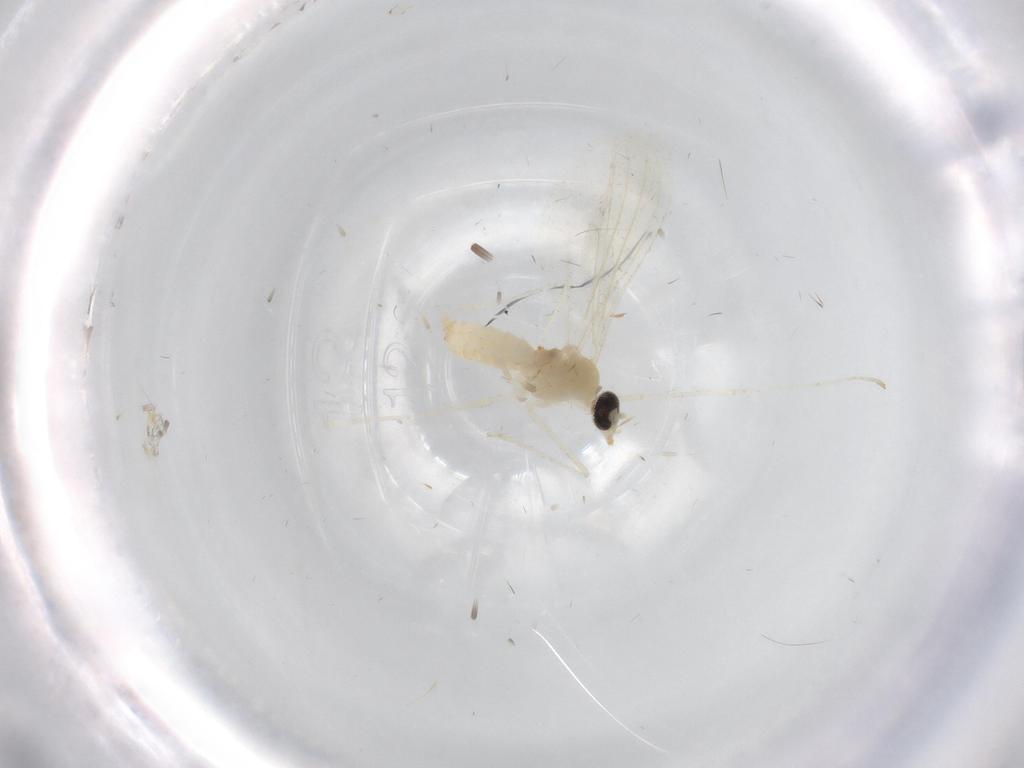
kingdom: Animalia
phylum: Arthropoda
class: Insecta
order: Diptera
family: Cecidomyiidae
